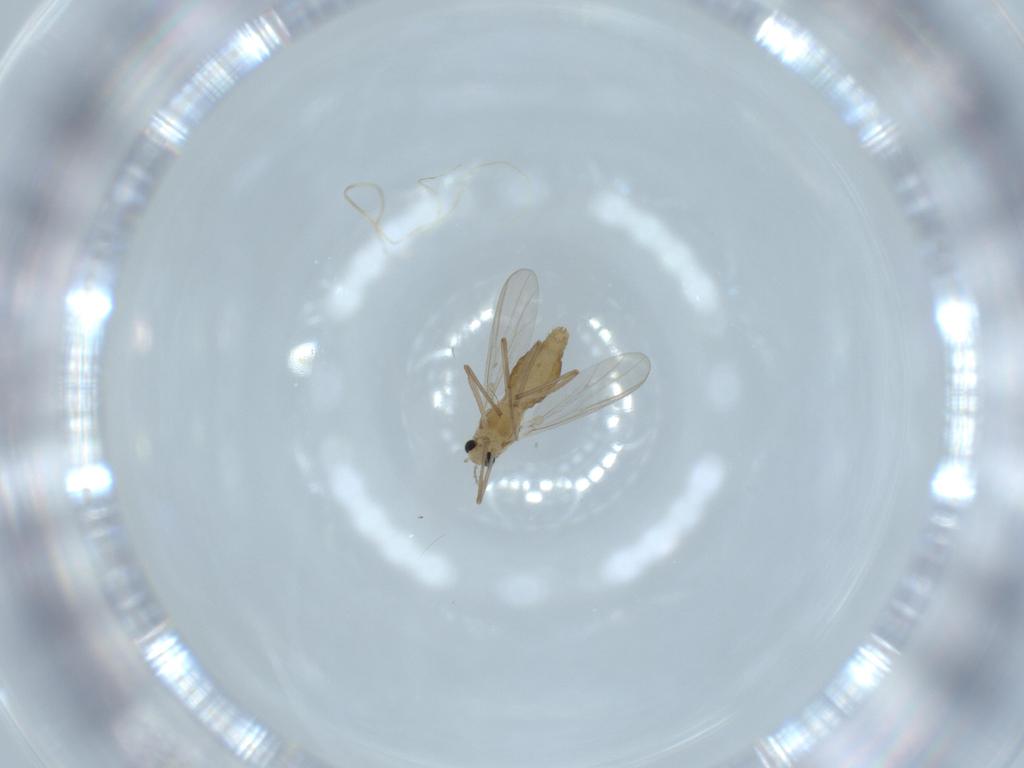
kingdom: Animalia
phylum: Arthropoda
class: Insecta
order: Diptera
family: Chironomidae
